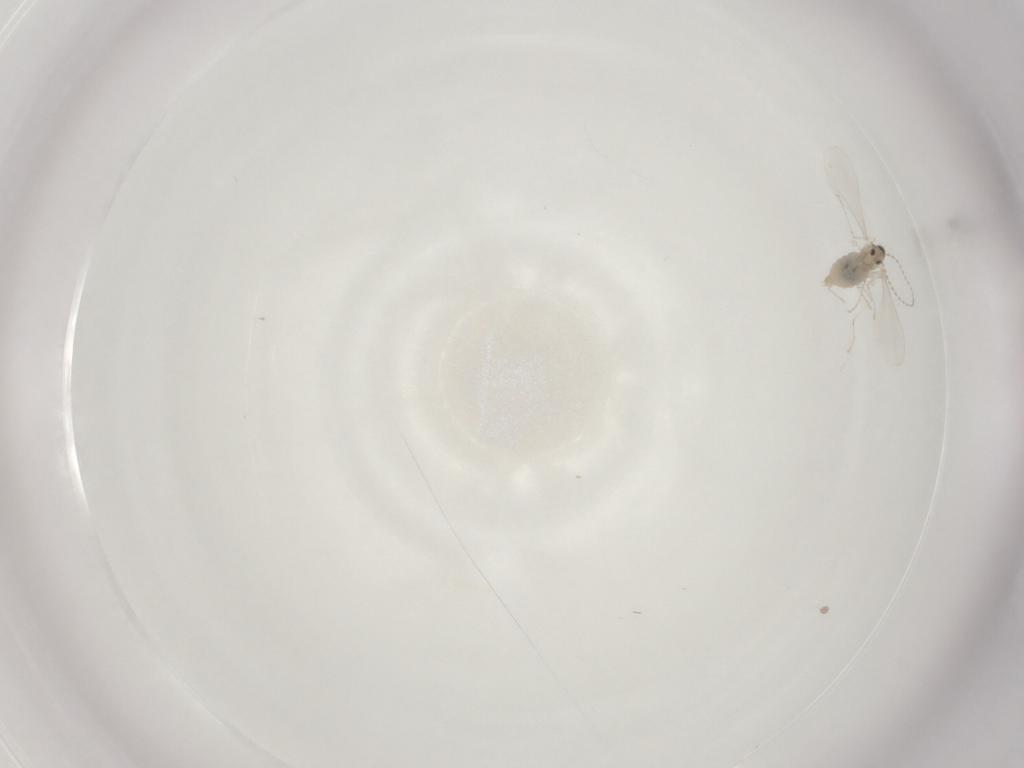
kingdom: Animalia
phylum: Arthropoda
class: Insecta
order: Diptera
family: Cecidomyiidae
